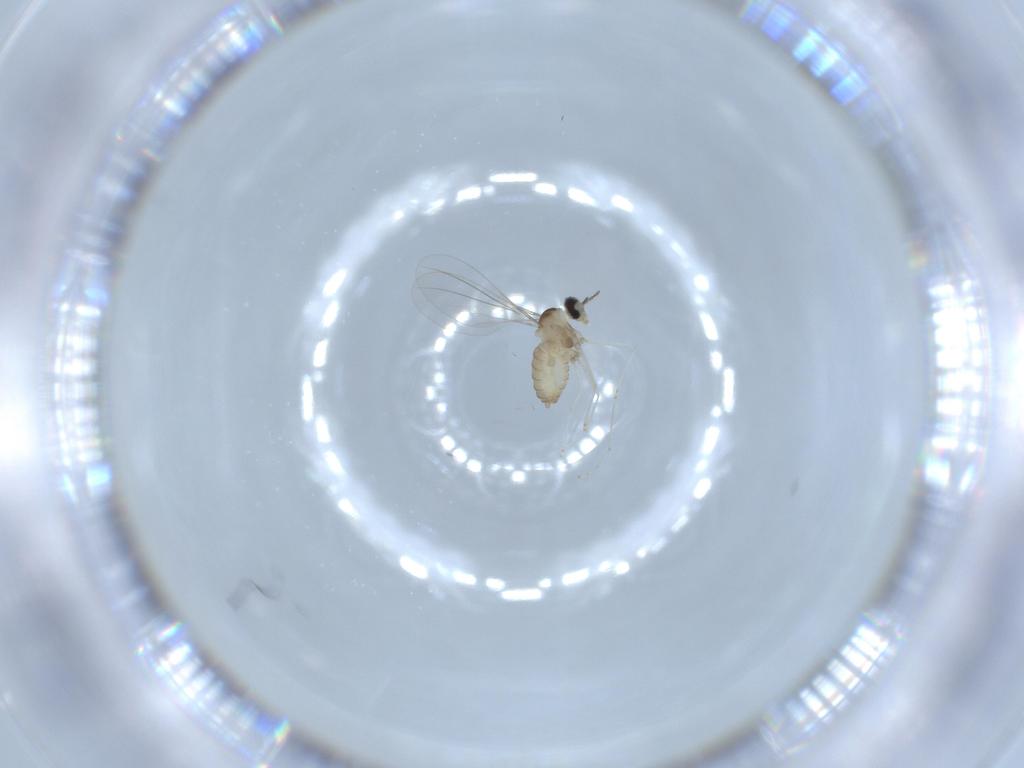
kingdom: Animalia
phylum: Arthropoda
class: Insecta
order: Diptera
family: Cecidomyiidae
